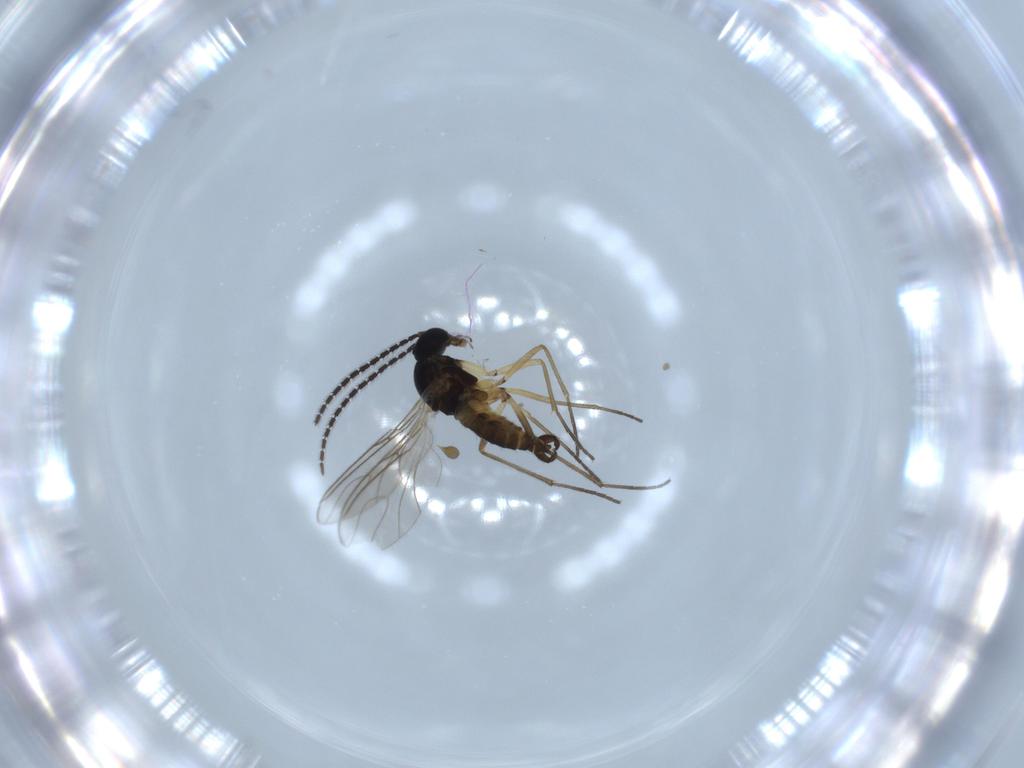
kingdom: Animalia
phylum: Arthropoda
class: Insecta
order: Diptera
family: Sciaridae
